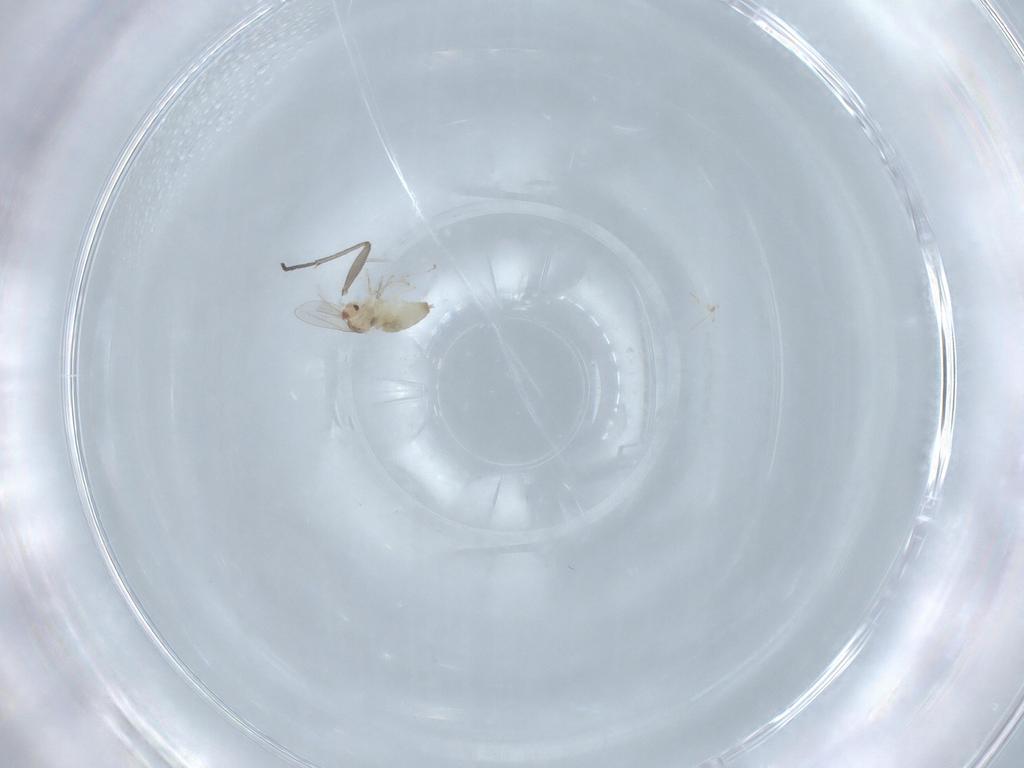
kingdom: Animalia
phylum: Arthropoda
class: Insecta
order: Diptera
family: Cecidomyiidae
